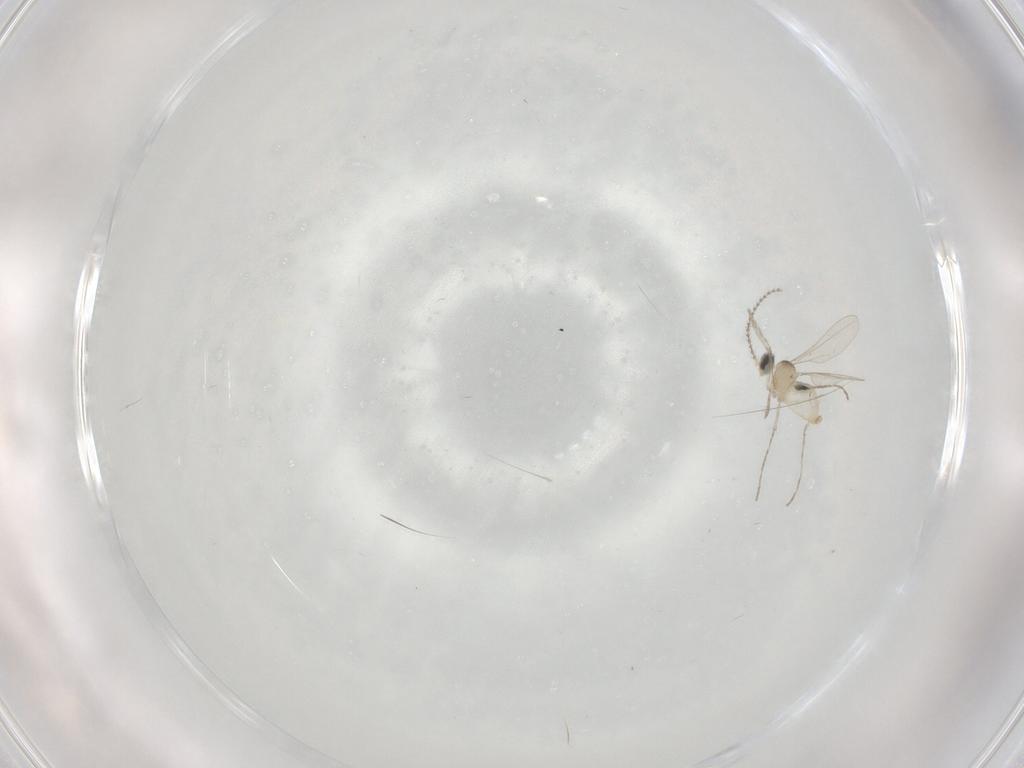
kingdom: Animalia
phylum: Arthropoda
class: Insecta
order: Diptera
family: Cecidomyiidae
